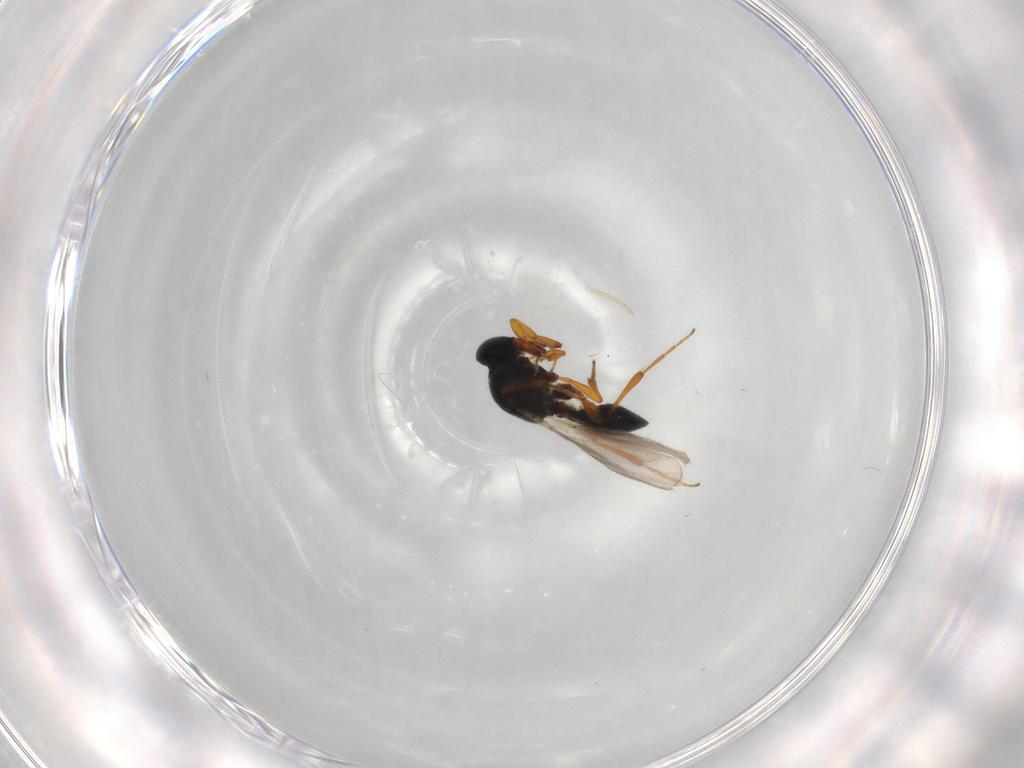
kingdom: Animalia
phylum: Arthropoda
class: Insecta
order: Hymenoptera
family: Platygastridae
